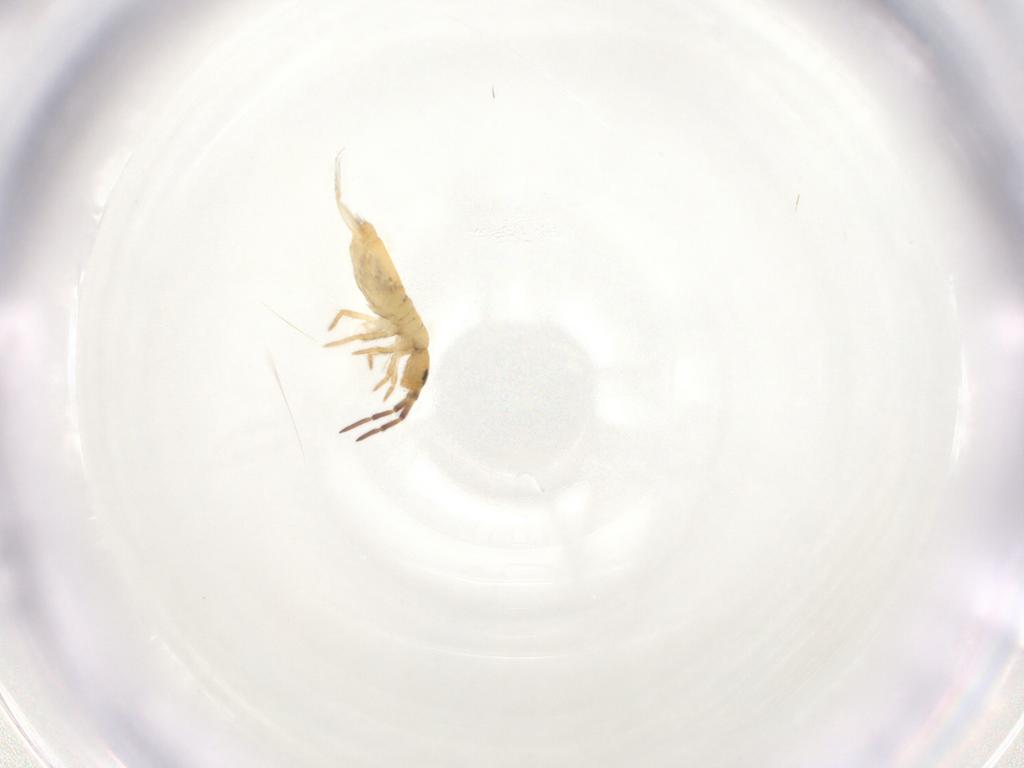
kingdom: Animalia
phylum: Arthropoda
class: Collembola
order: Entomobryomorpha
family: Entomobryidae
